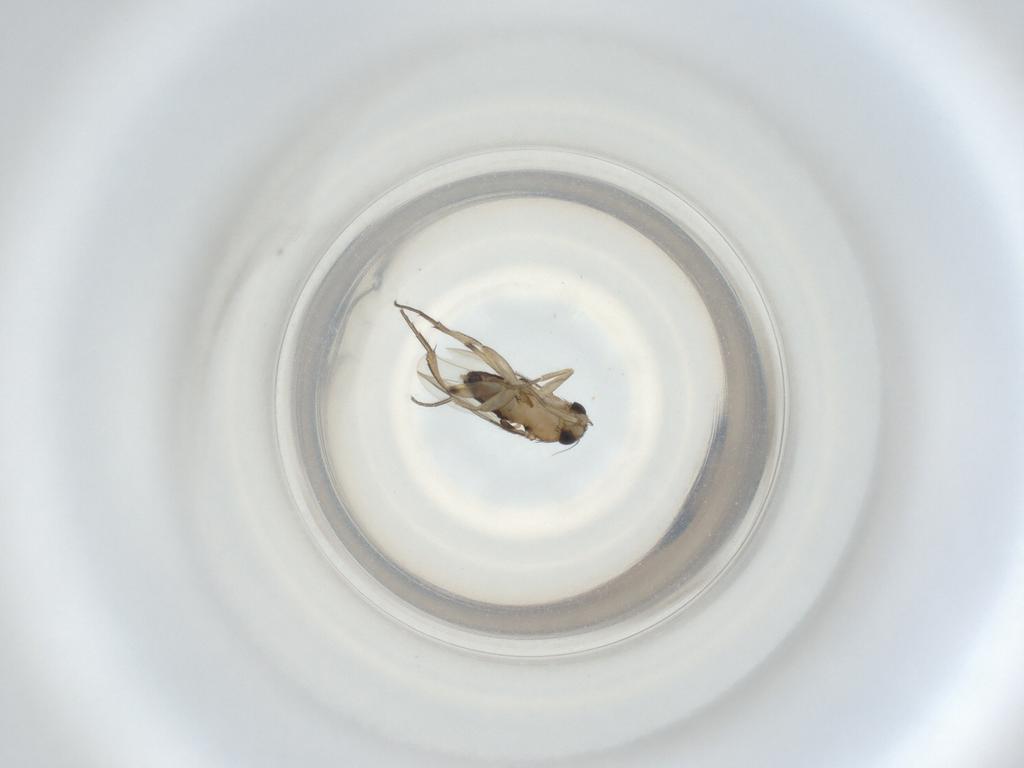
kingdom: Animalia
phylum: Arthropoda
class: Insecta
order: Diptera
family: Phoridae
